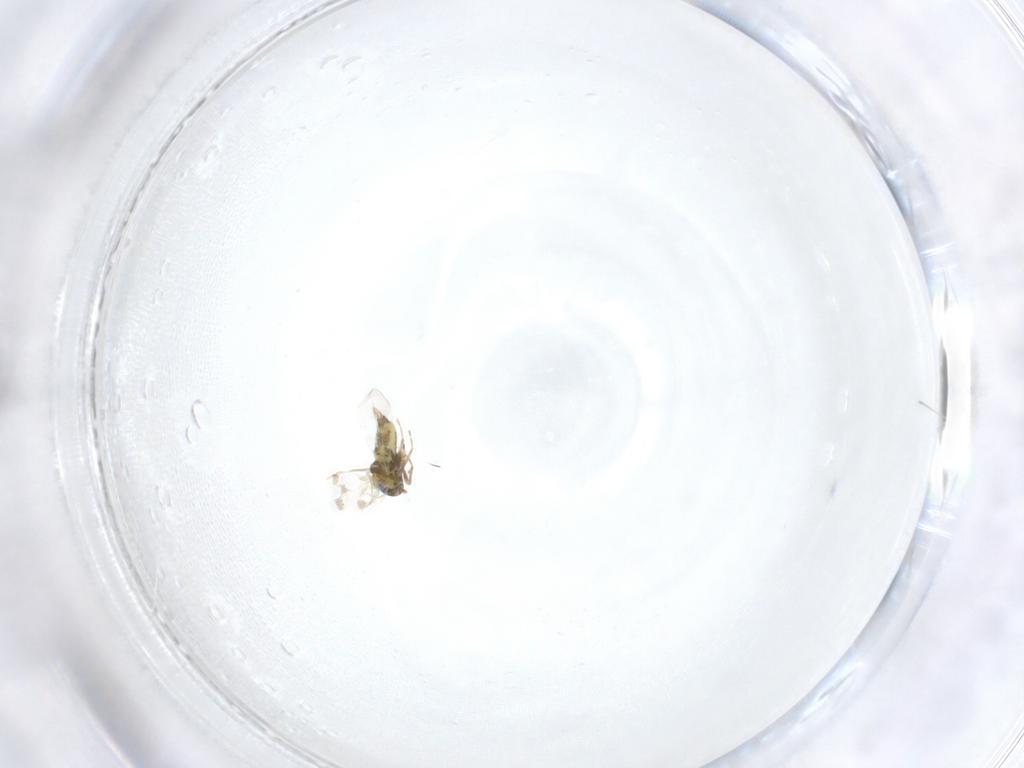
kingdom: Animalia
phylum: Arthropoda
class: Insecta
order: Hemiptera
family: Aleyrodidae
